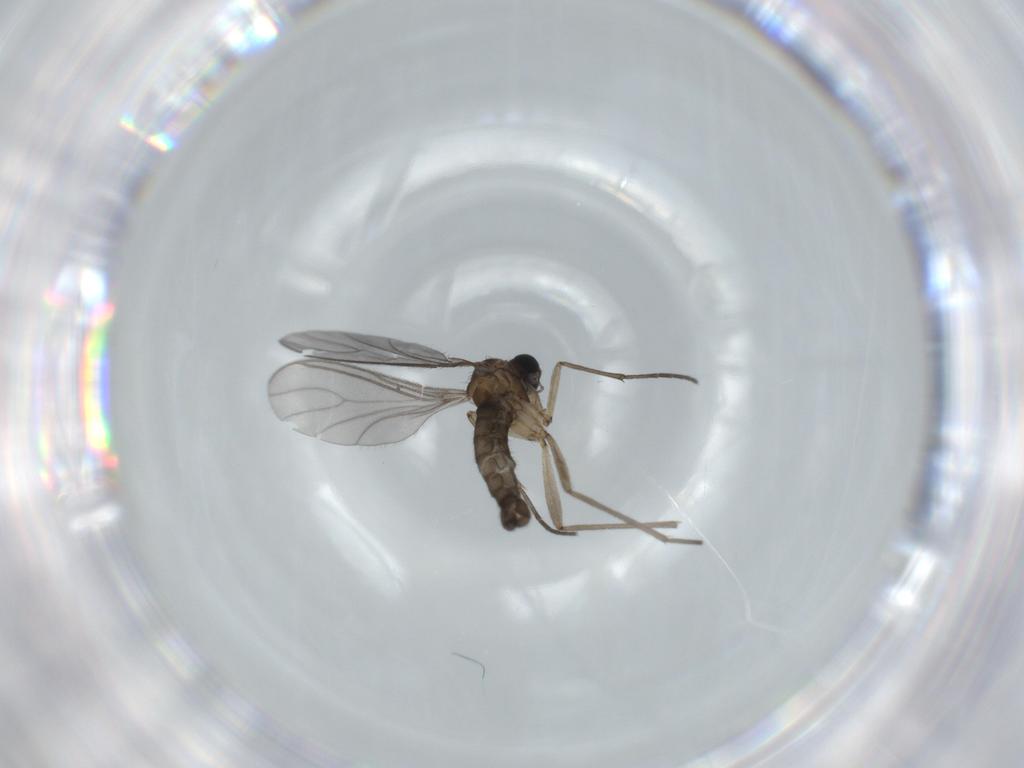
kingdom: Animalia
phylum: Arthropoda
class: Insecta
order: Diptera
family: Sciaridae
